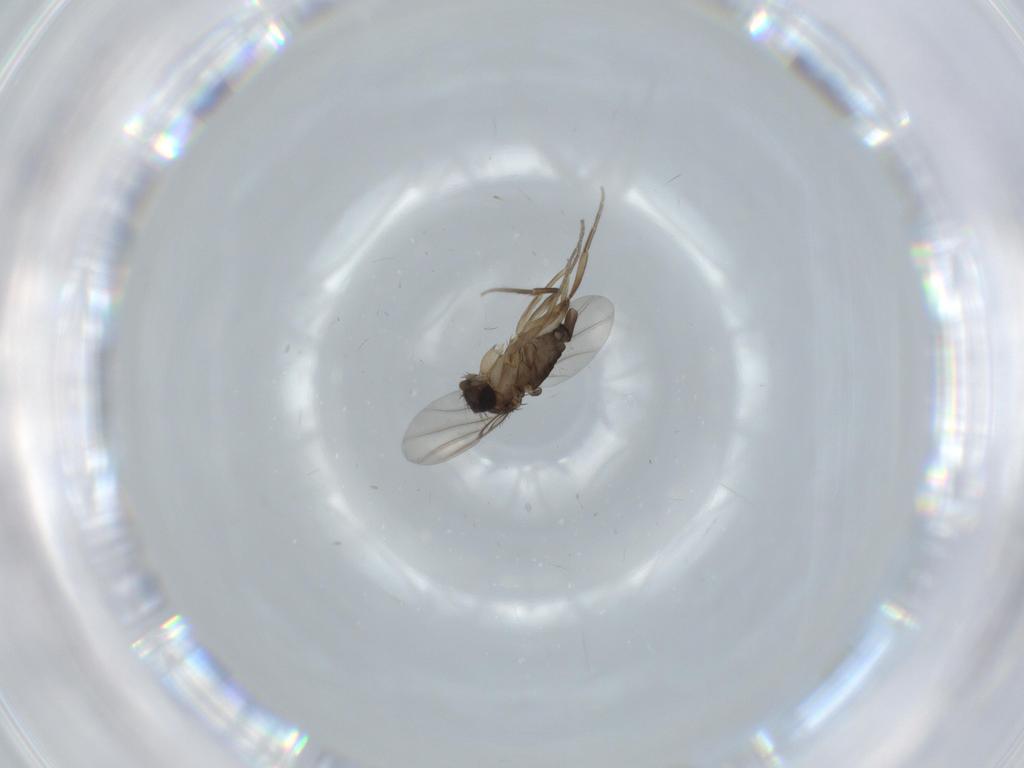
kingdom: Animalia
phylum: Arthropoda
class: Insecta
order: Diptera
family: Phoridae
